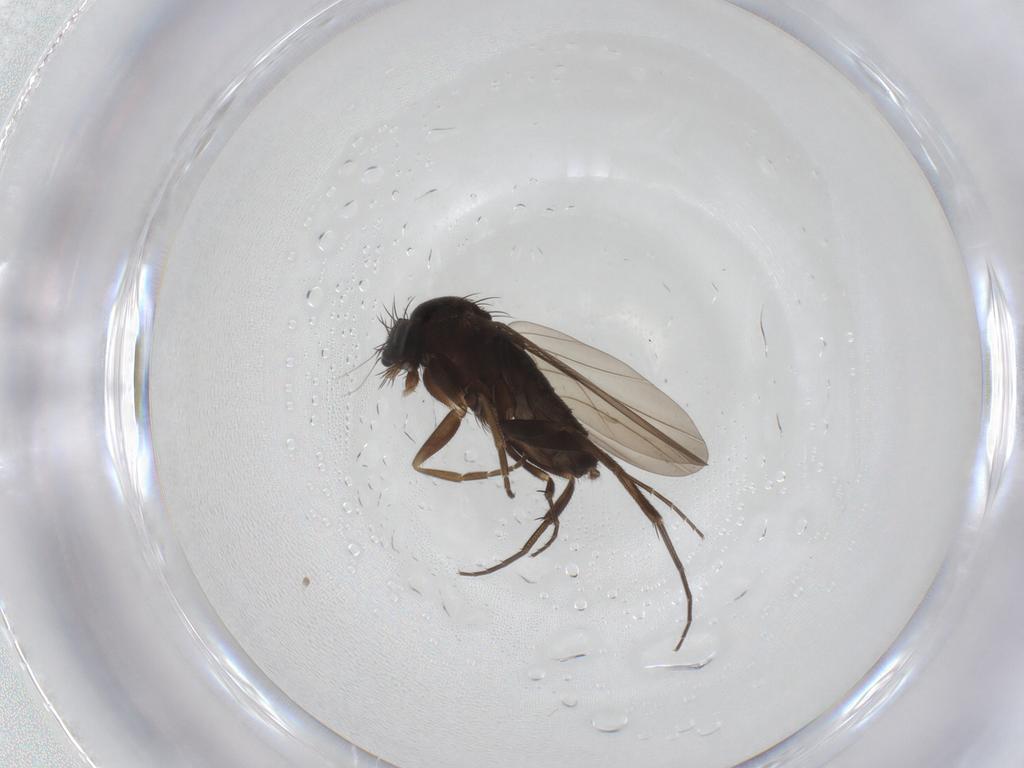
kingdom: Animalia
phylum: Arthropoda
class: Insecta
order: Diptera
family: Phoridae
